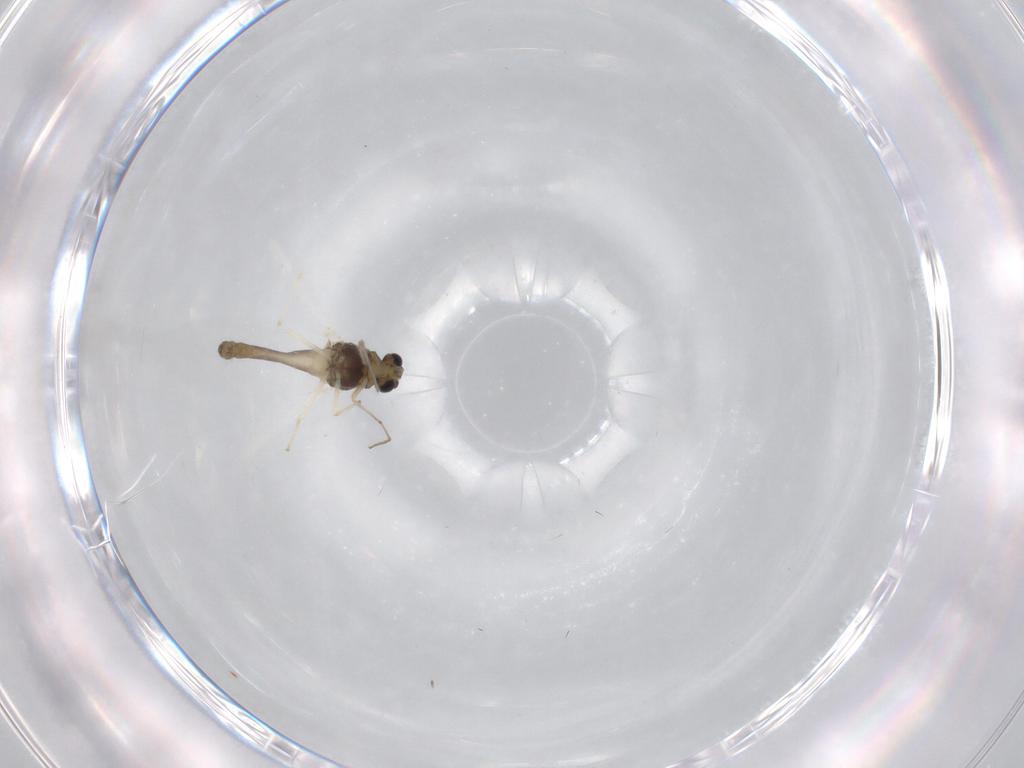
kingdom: Animalia
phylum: Arthropoda
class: Insecta
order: Diptera
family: Chironomidae
